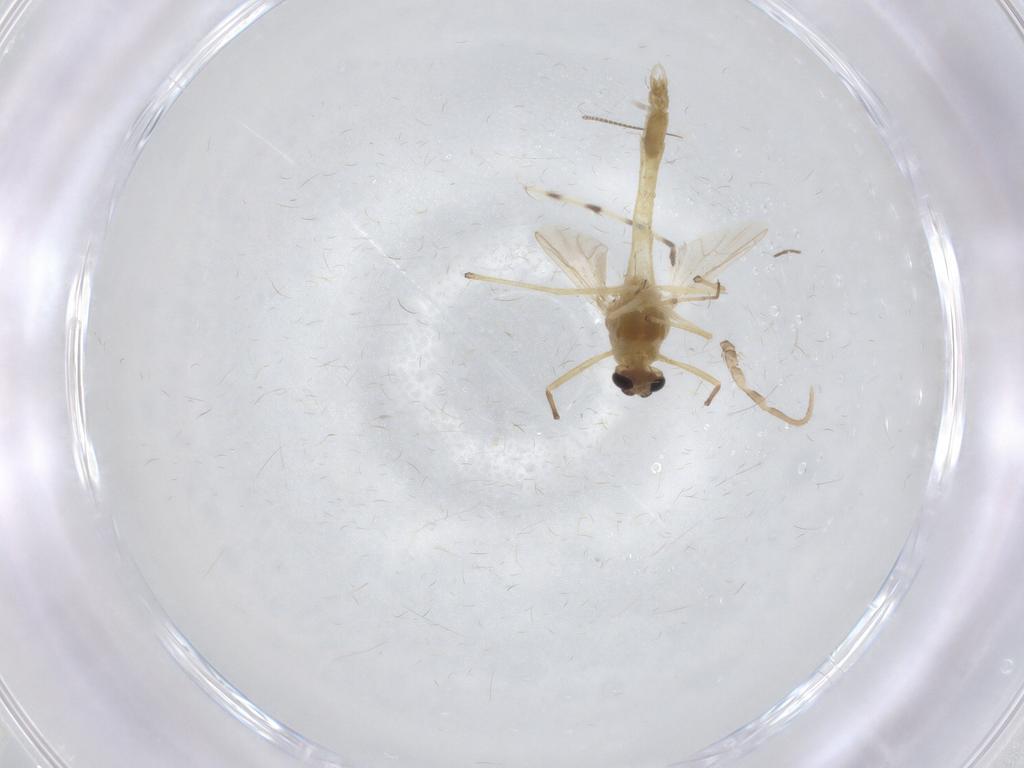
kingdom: Animalia
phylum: Arthropoda
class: Insecta
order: Diptera
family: Chironomidae
